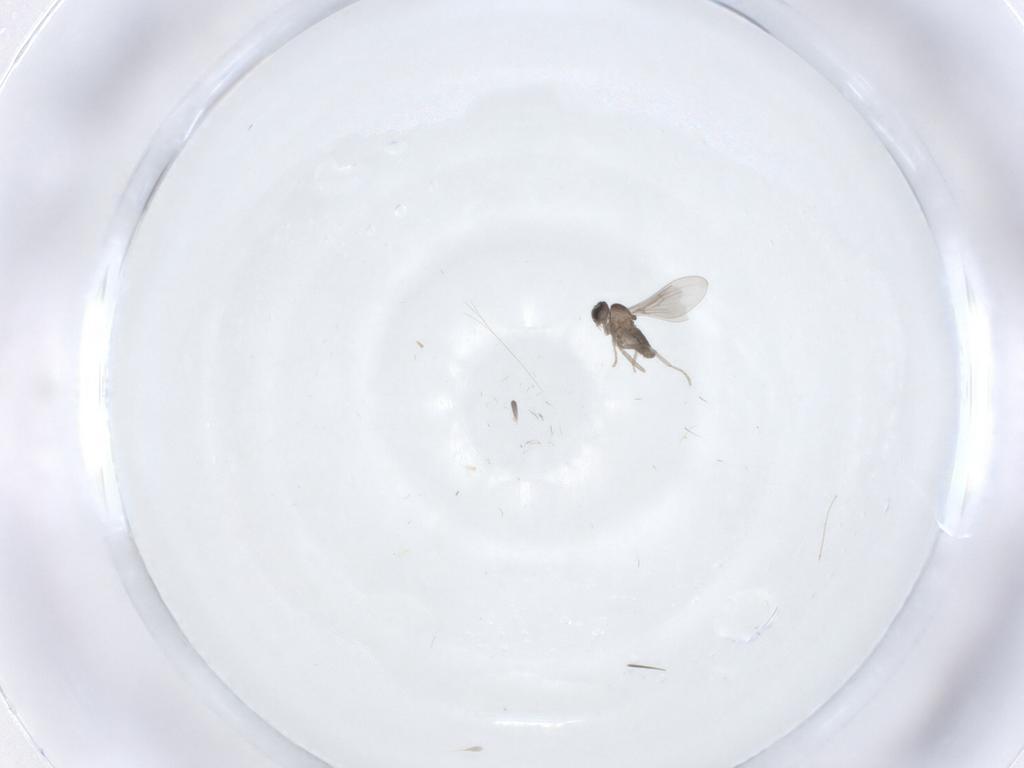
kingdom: Animalia
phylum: Arthropoda
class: Insecta
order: Diptera
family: Cecidomyiidae
